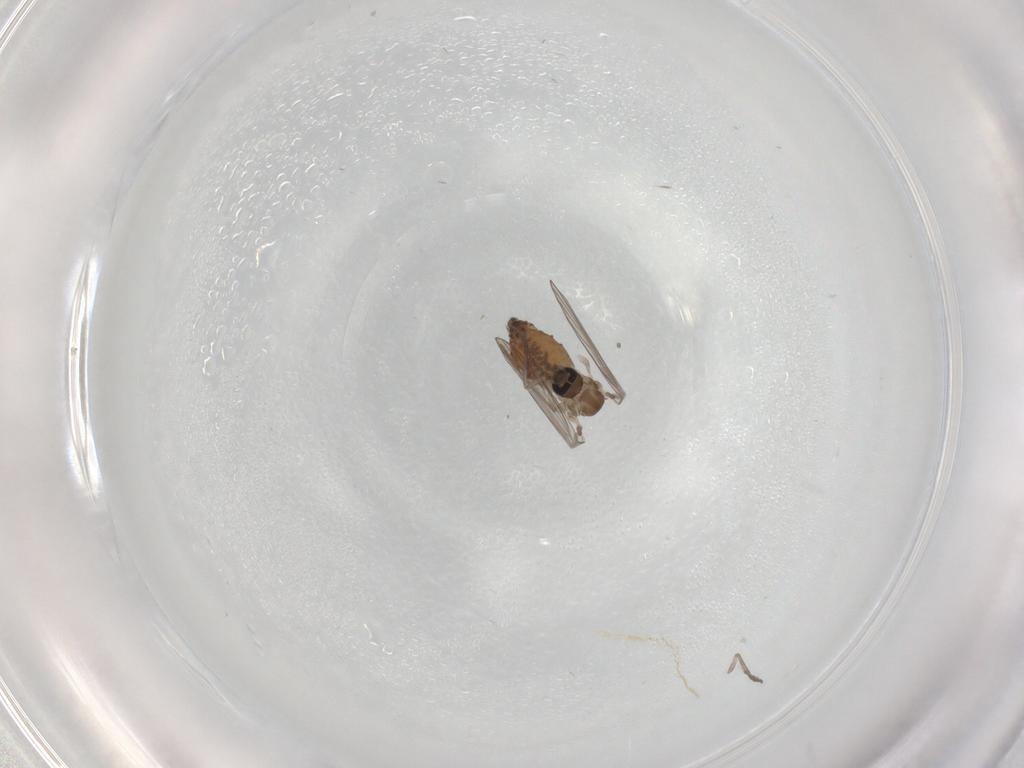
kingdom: Animalia
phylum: Arthropoda
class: Insecta
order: Diptera
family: Psychodidae
